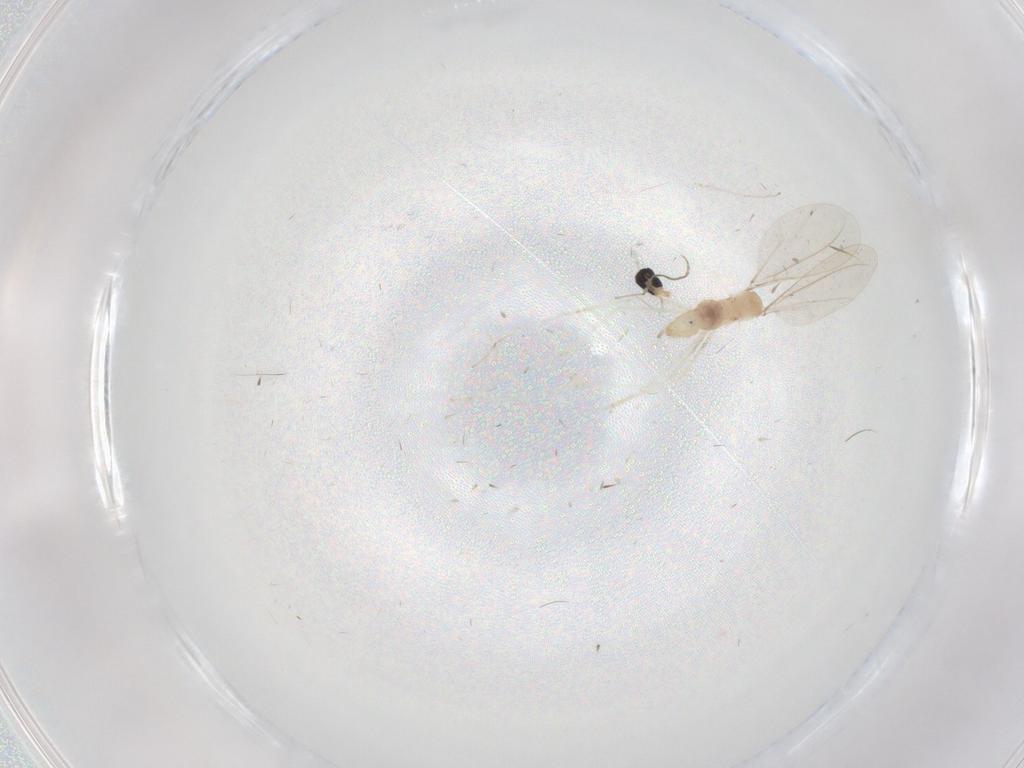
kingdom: Animalia
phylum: Arthropoda
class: Insecta
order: Diptera
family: Cecidomyiidae
